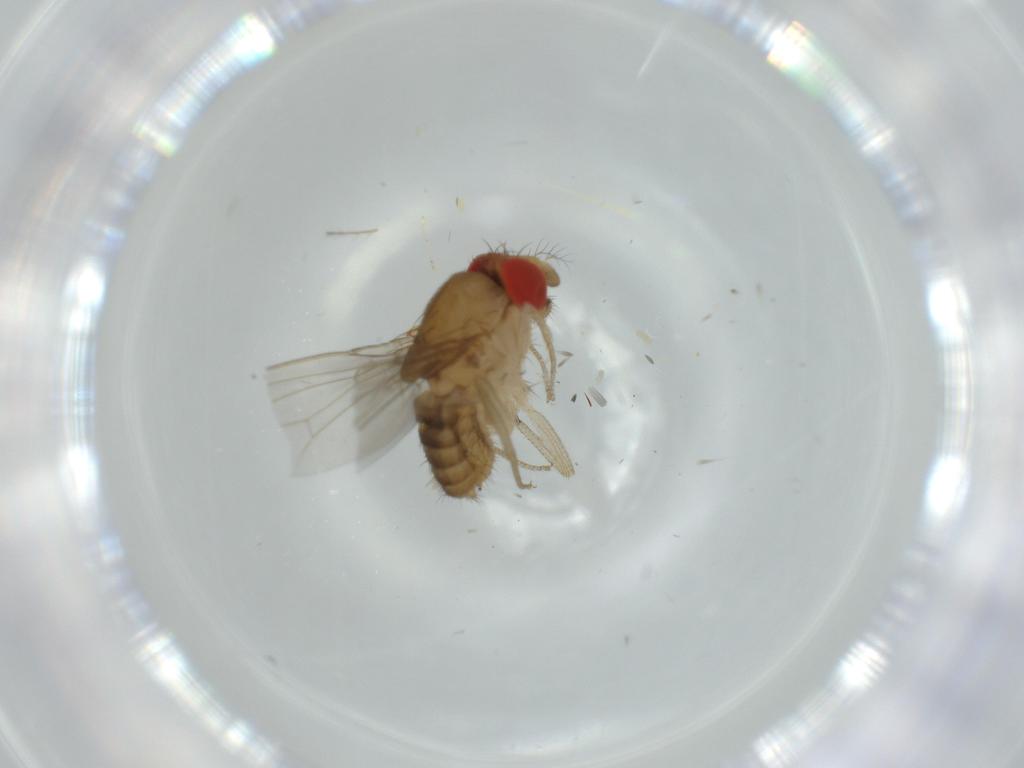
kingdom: Animalia
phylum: Arthropoda
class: Insecta
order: Diptera
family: Drosophilidae
